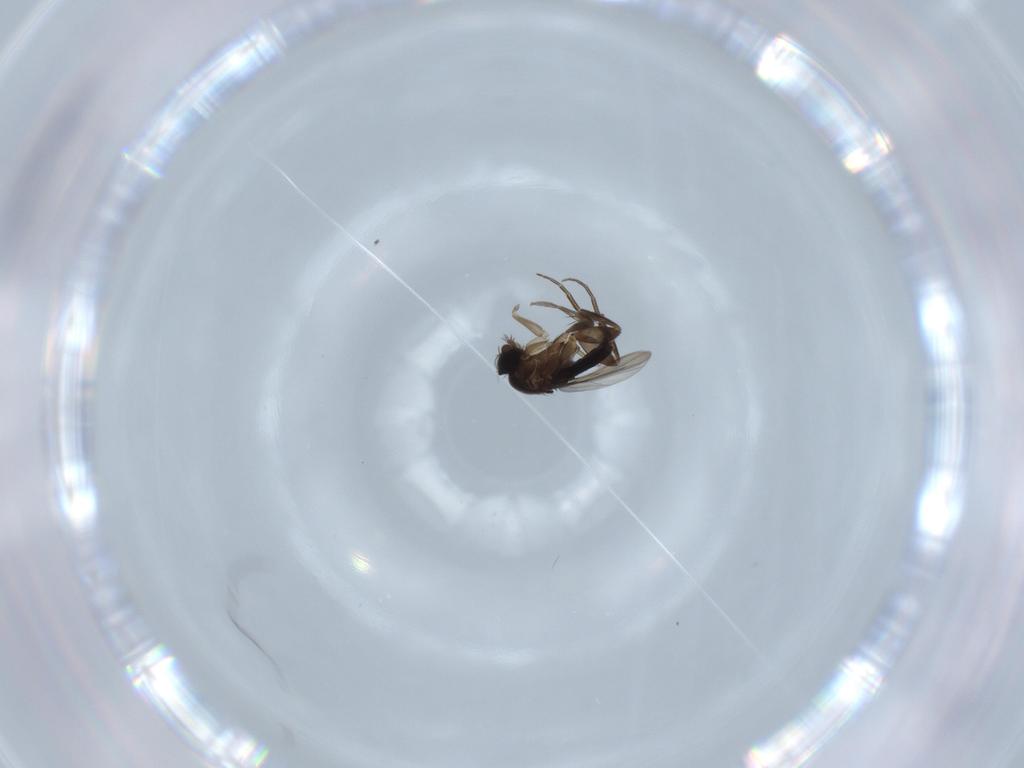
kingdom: Animalia
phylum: Arthropoda
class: Insecta
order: Diptera
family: Phoridae
